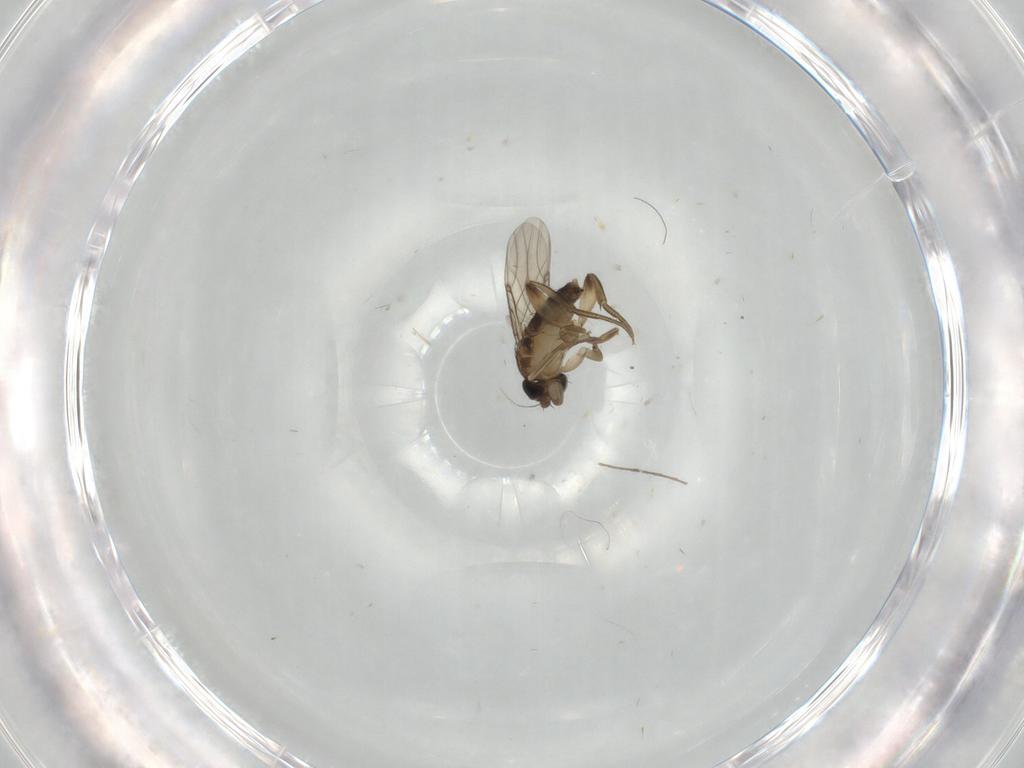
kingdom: Animalia
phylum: Arthropoda
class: Insecta
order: Diptera
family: Phoridae
